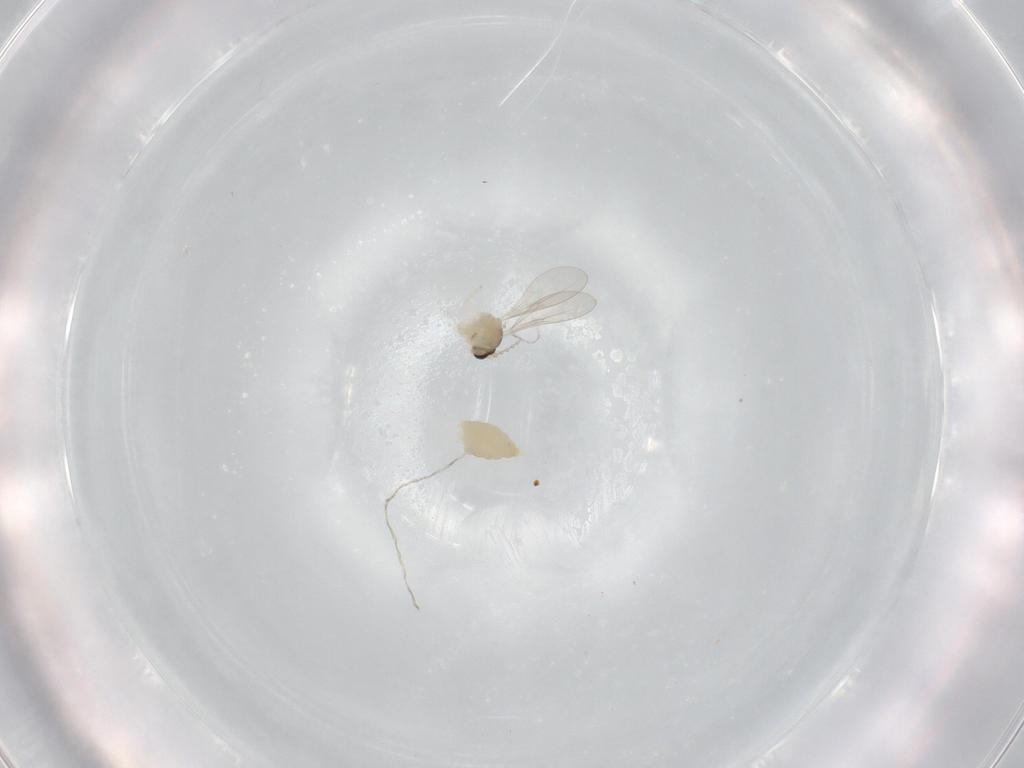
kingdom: Animalia
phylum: Arthropoda
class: Insecta
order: Diptera
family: Cecidomyiidae
